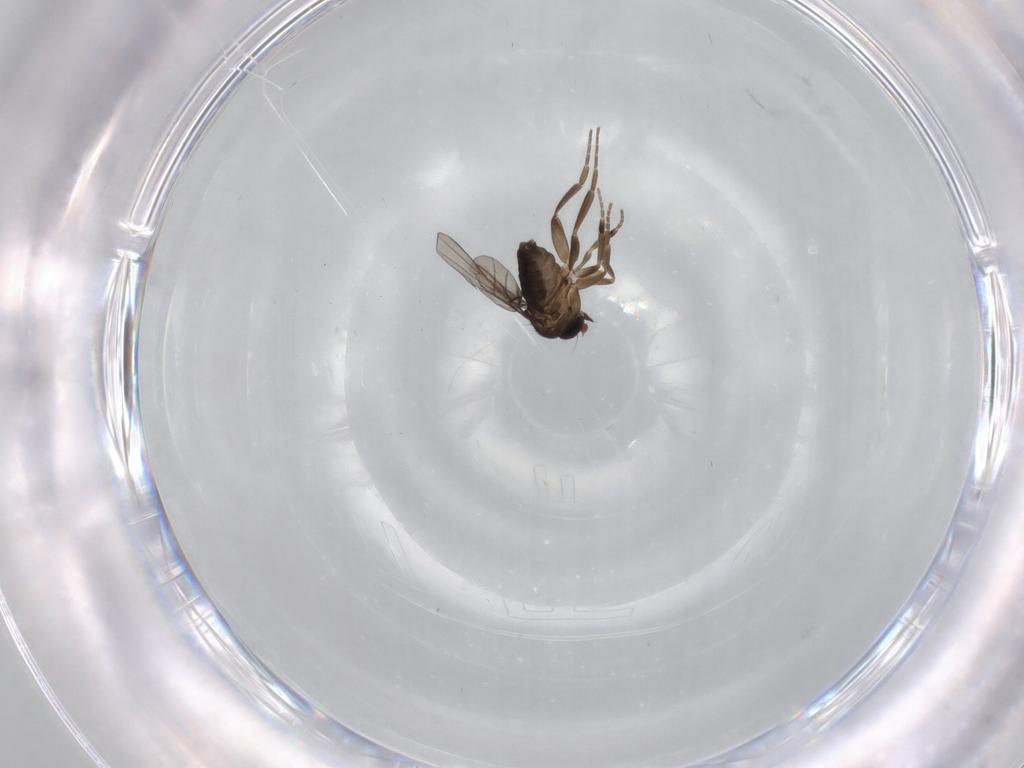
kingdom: Animalia
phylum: Arthropoda
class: Insecta
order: Diptera
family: Phoridae
